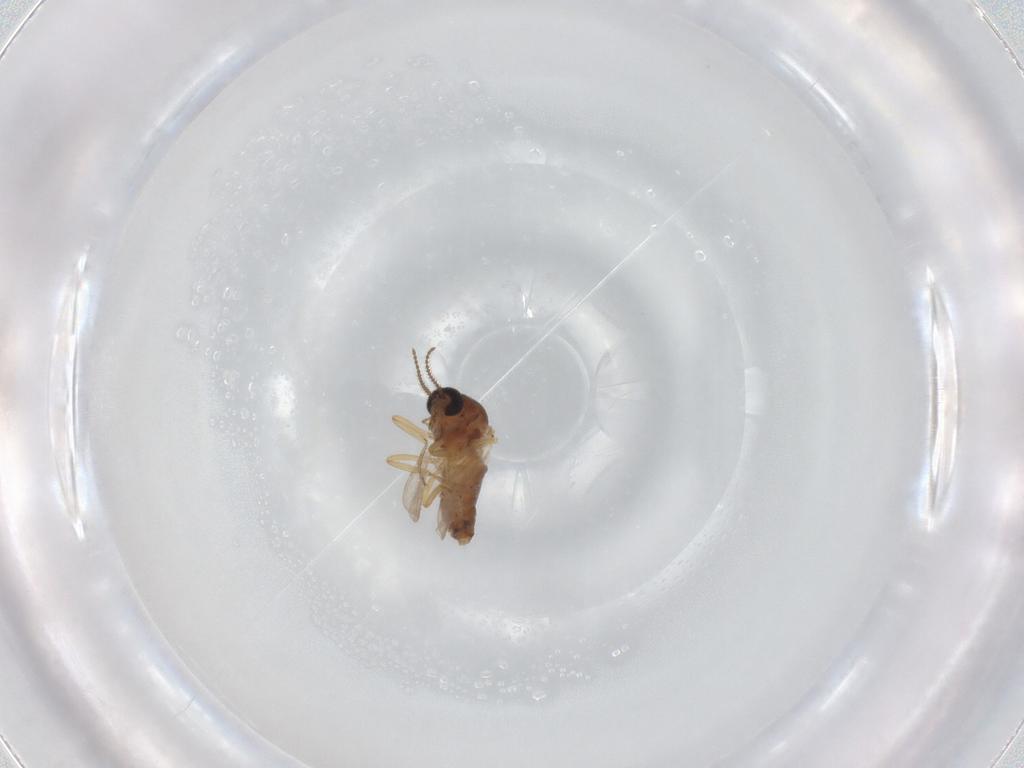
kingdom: Animalia
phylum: Arthropoda
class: Insecta
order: Diptera
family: Ceratopogonidae
